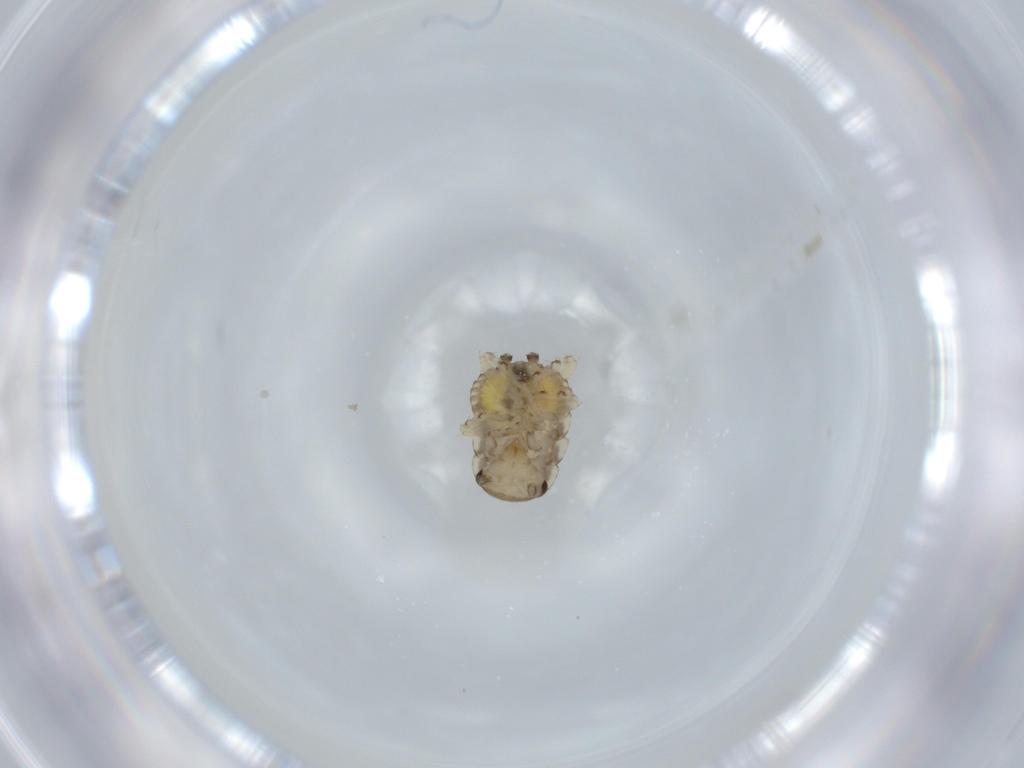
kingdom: Animalia
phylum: Arthropoda
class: Insecta
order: Blattodea
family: Ectobiidae
